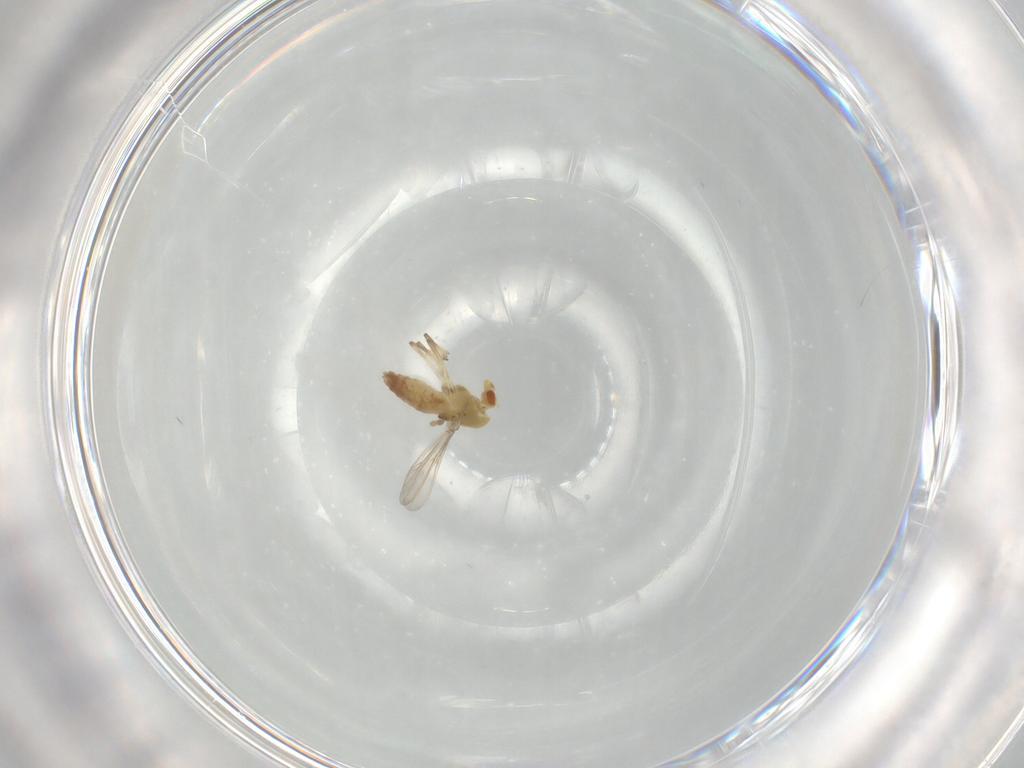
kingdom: Animalia
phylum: Arthropoda
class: Insecta
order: Diptera
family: Chironomidae
